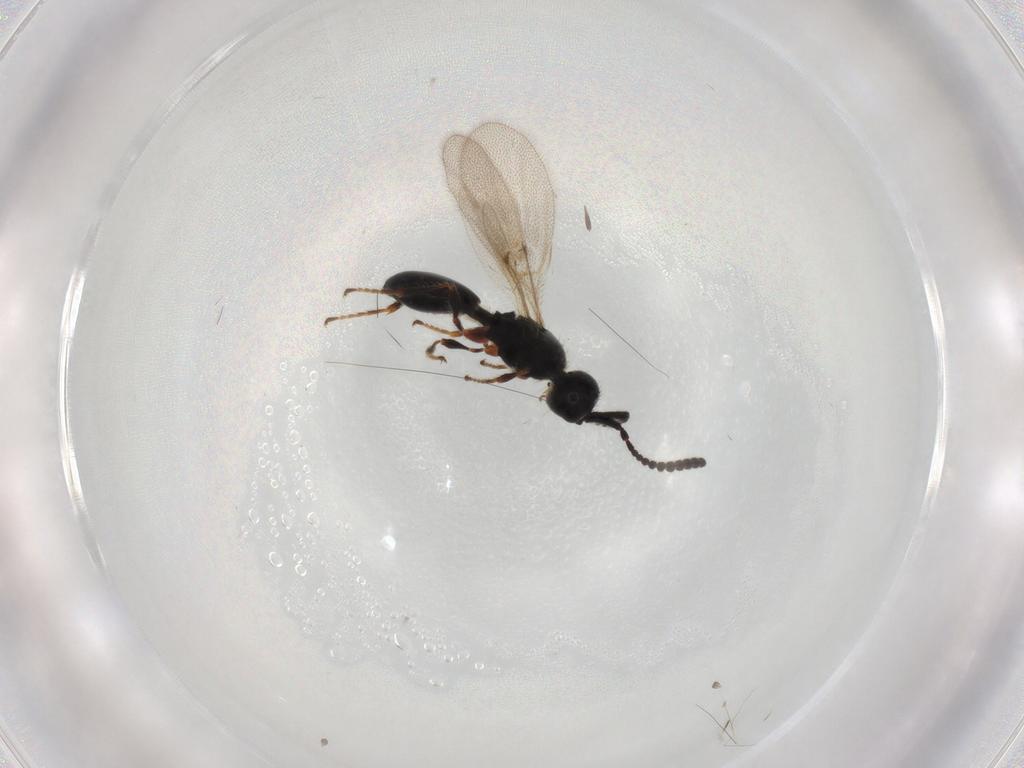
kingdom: Animalia
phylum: Arthropoda
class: Insecta
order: Hymenoptera
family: Diapriidae
